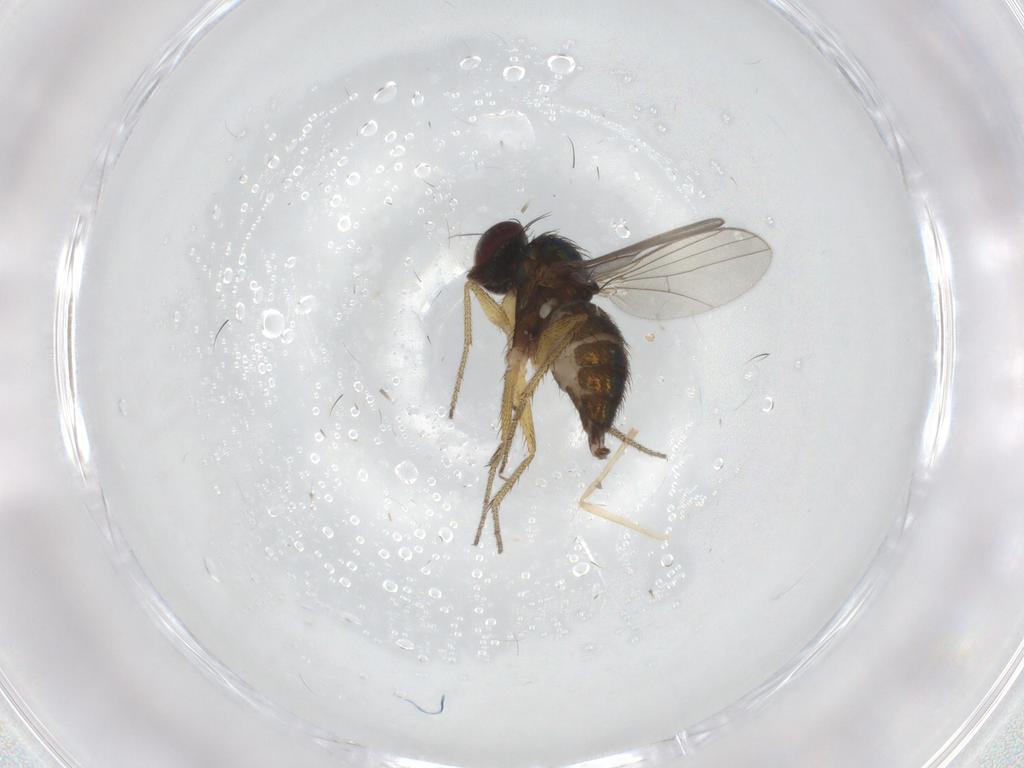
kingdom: Animalia
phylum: Arthropoda
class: Insecta
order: Diptera
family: Chironomidae
